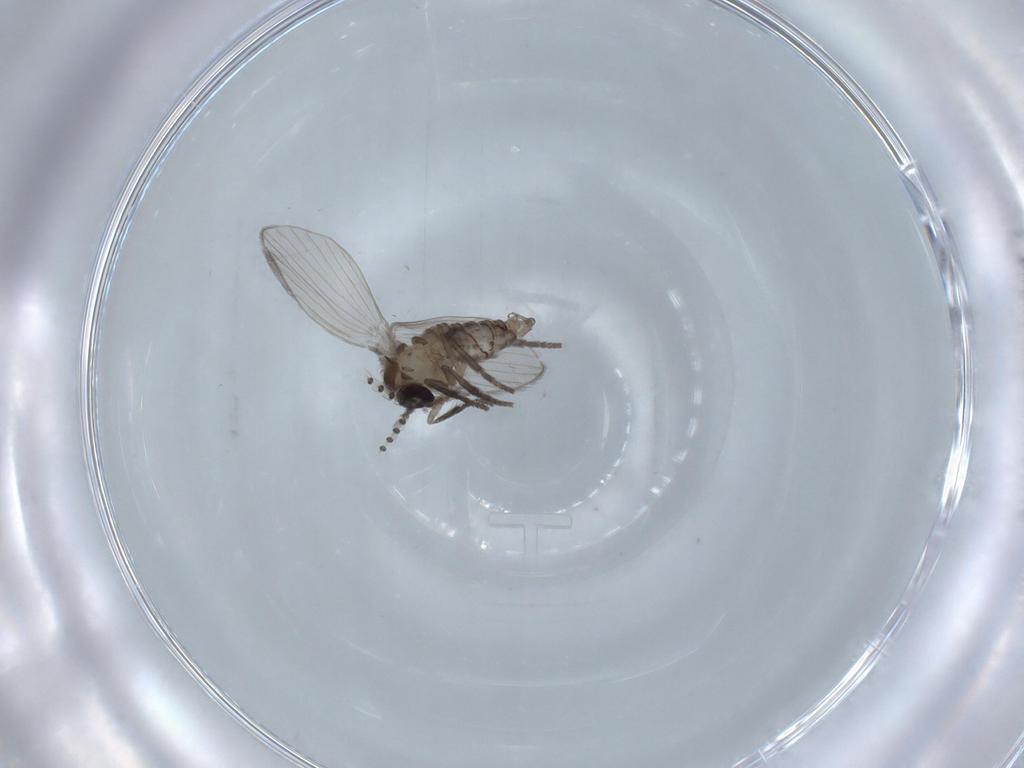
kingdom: Animalia
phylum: Arthropoda
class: Insecta
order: Diptera
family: Psychodidae
